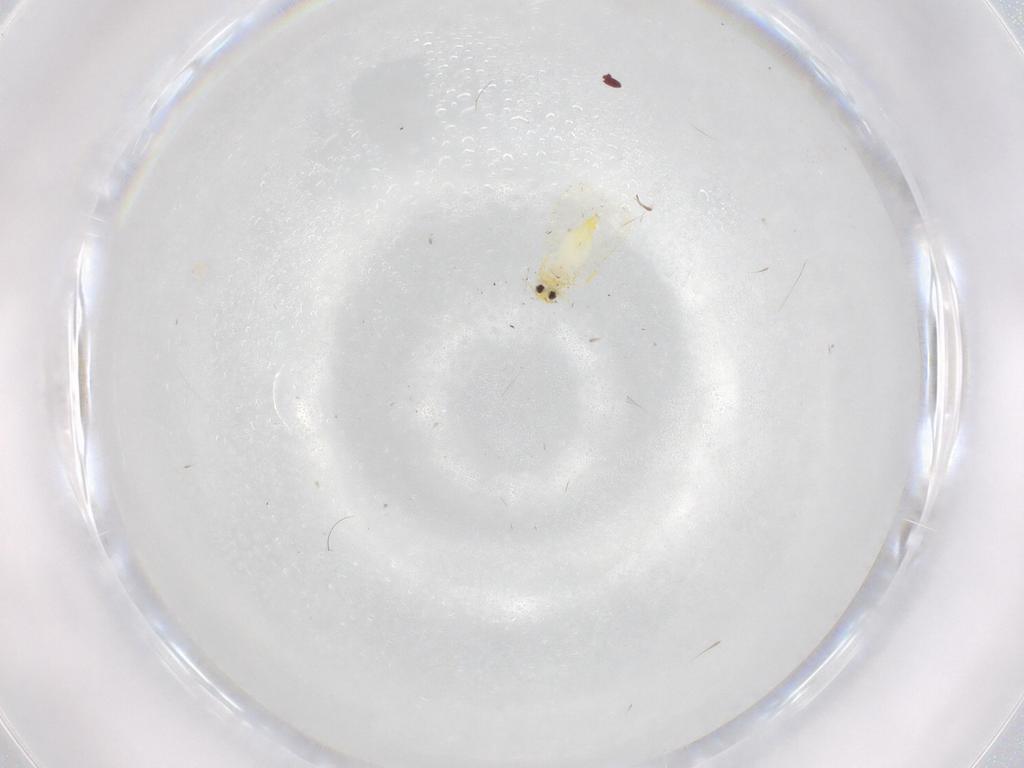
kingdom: Animalia
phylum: Arthropoda
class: Insecta
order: Hemiptera
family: Aleyrodidae
